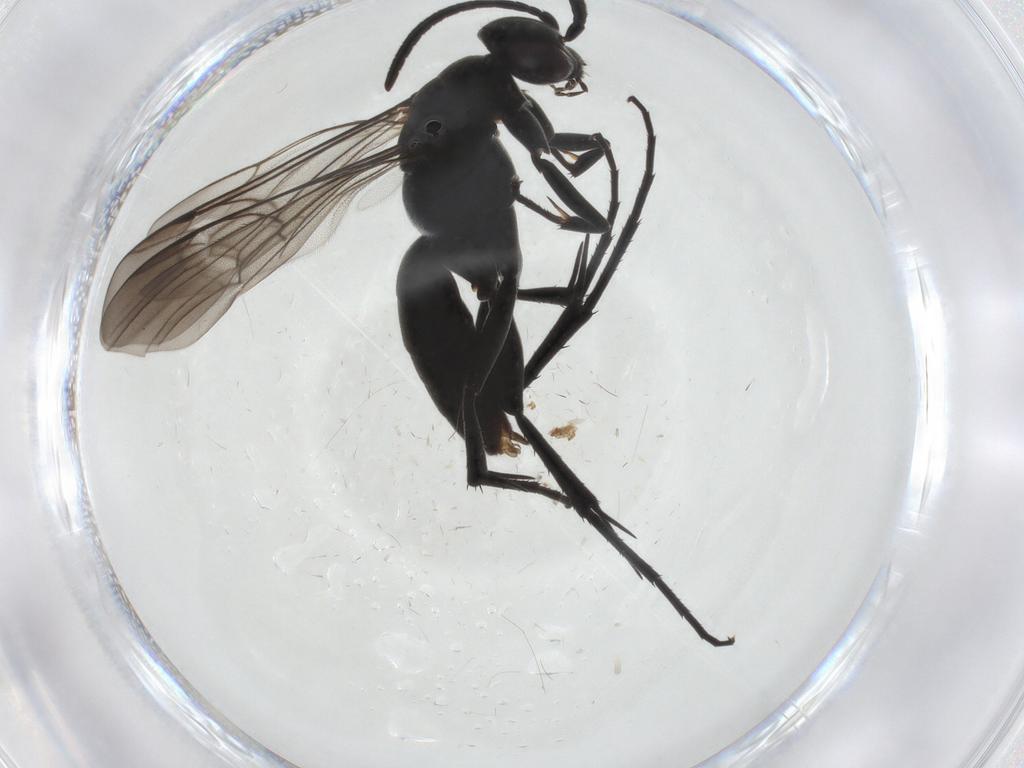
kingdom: Animalia
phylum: Arthropoda
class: Insecta
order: Hymenoptera
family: Pompilidae
